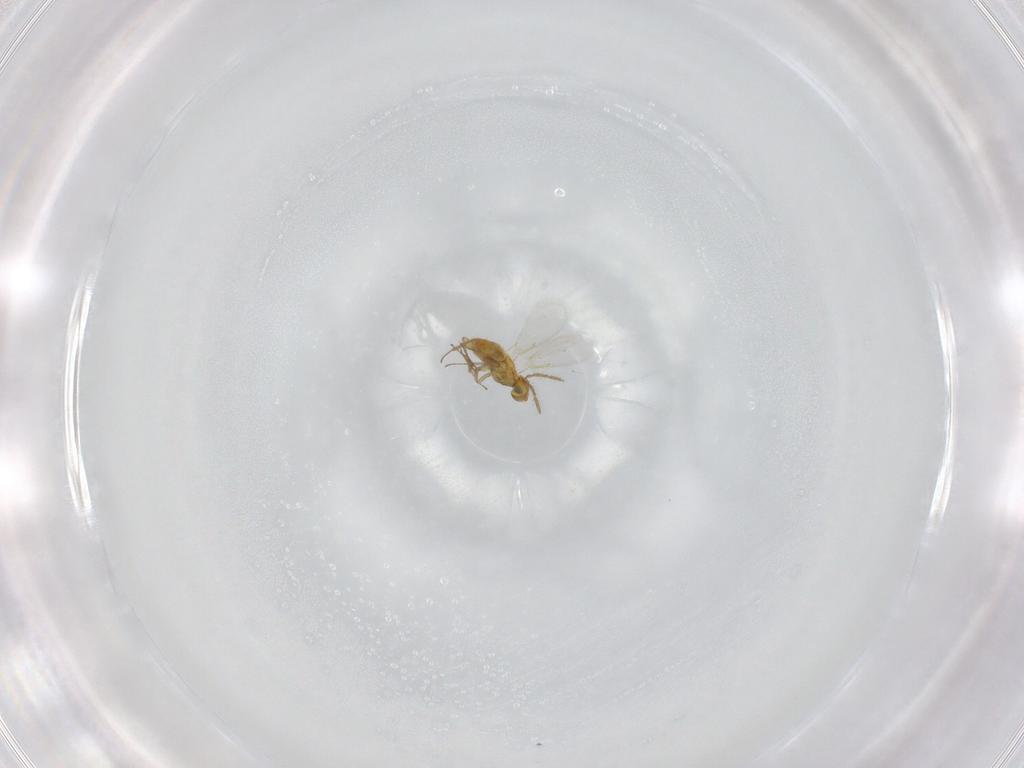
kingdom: Animalia
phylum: Arthropoda
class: Insecta
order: Hymenoptera
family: Aphelinidae
